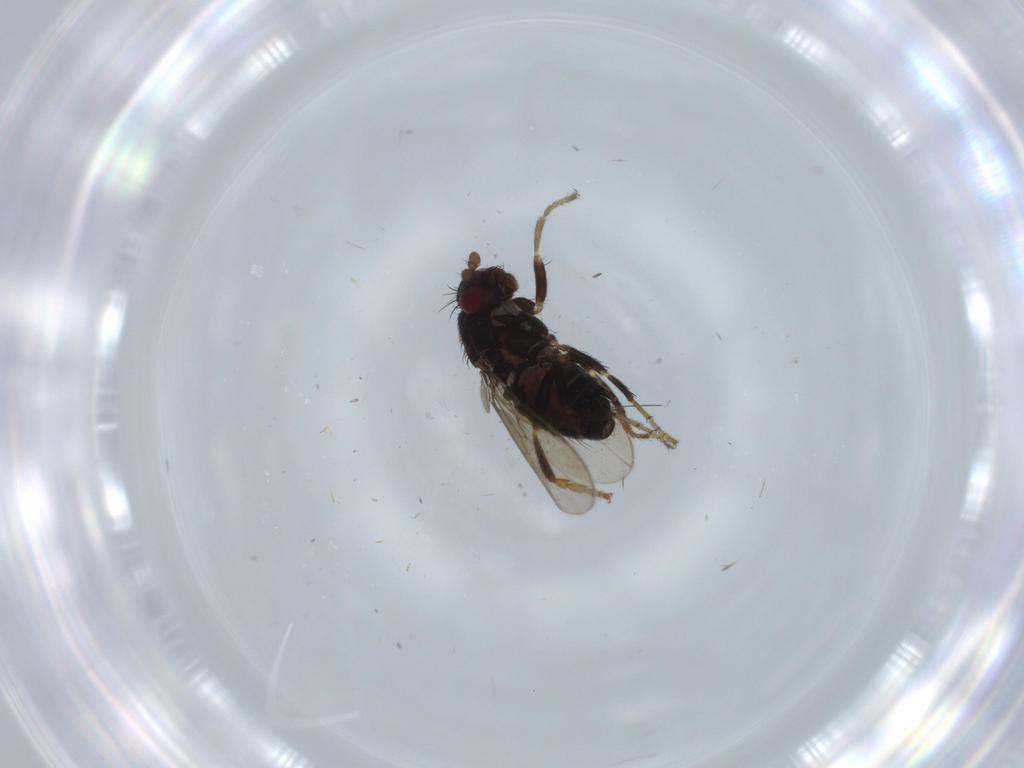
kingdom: Animalia
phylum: Arthropoda
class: Insecta
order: Diptera
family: Sphaeroceridae
